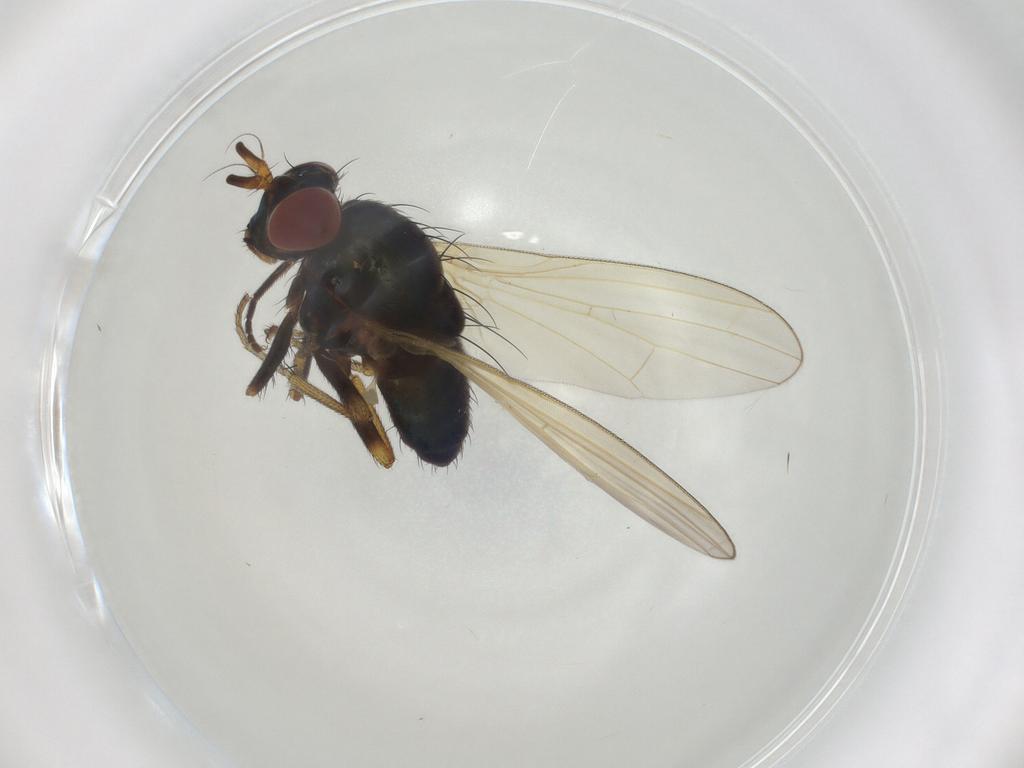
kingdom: Animalia
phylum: Arthropoda
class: Insecta
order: Diptera
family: Lauxaniidae
